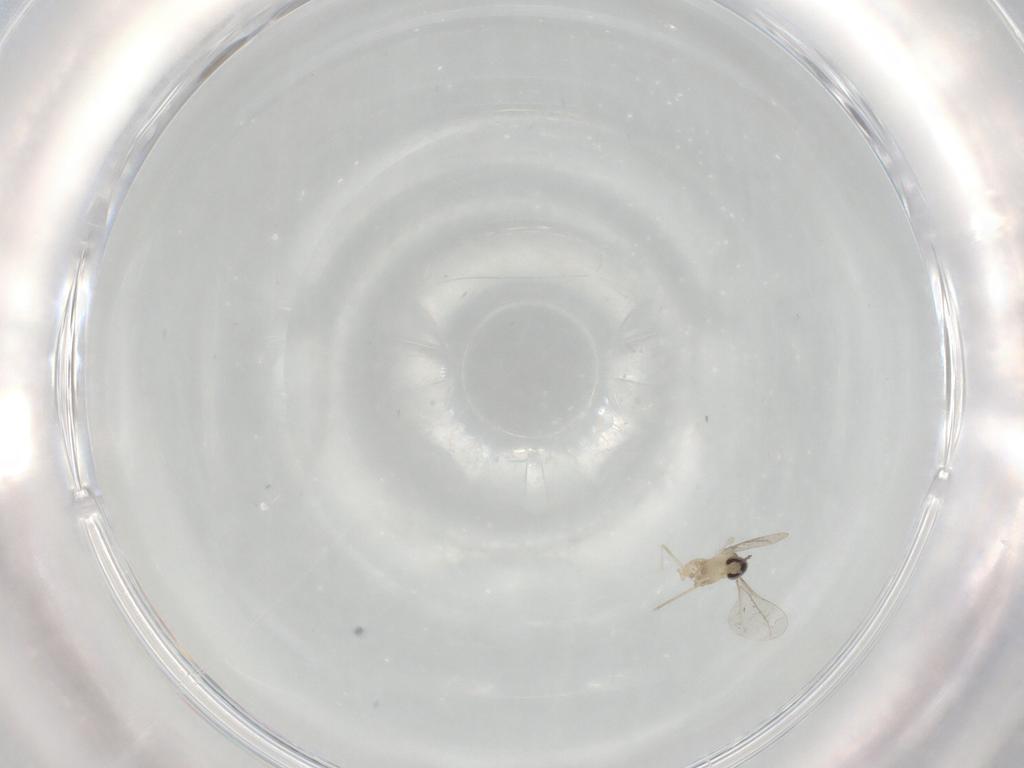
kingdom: Animalia
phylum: Arthropoda
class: Insecta
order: Diptera
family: Cecidomyiidae
